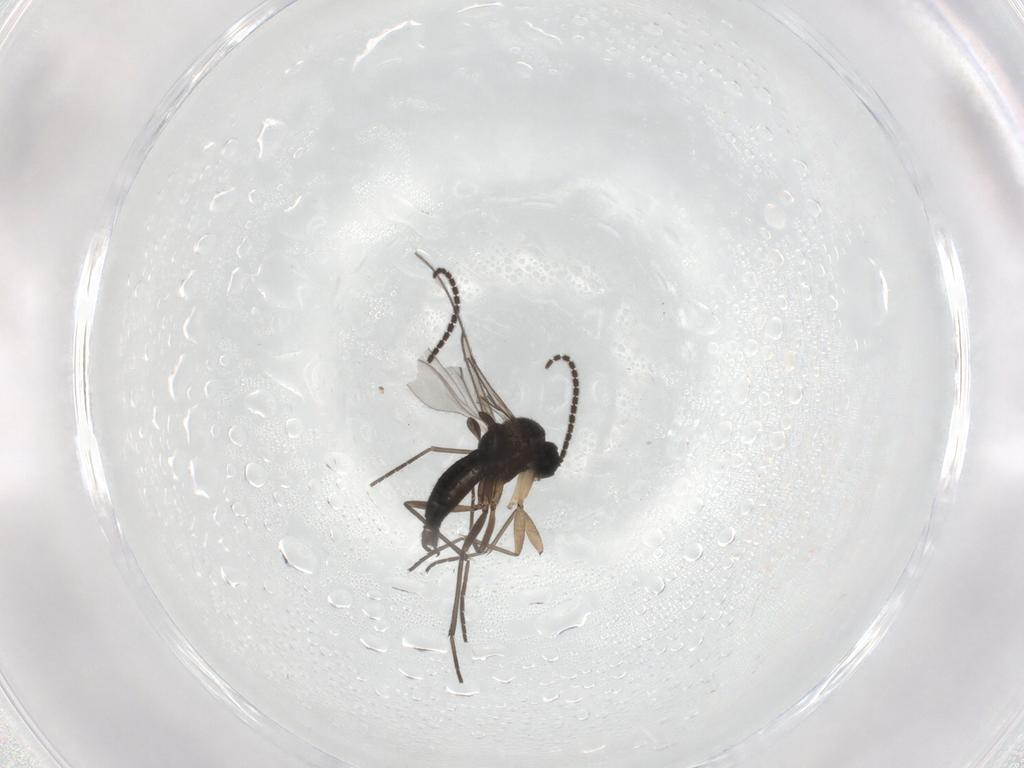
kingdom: Animalia
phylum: Arthropoda
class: Insecta
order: Diptera
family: Sciaridae
